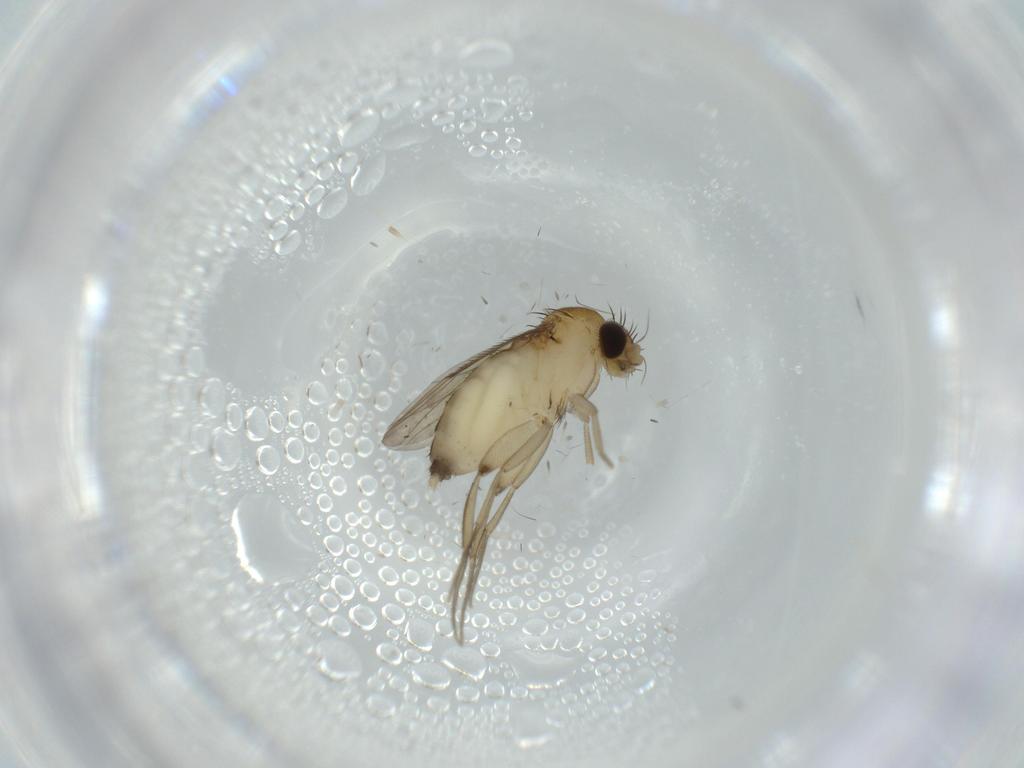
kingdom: Animalia
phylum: Arthropoda
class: Insecta
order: Diptera
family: Phoridae
